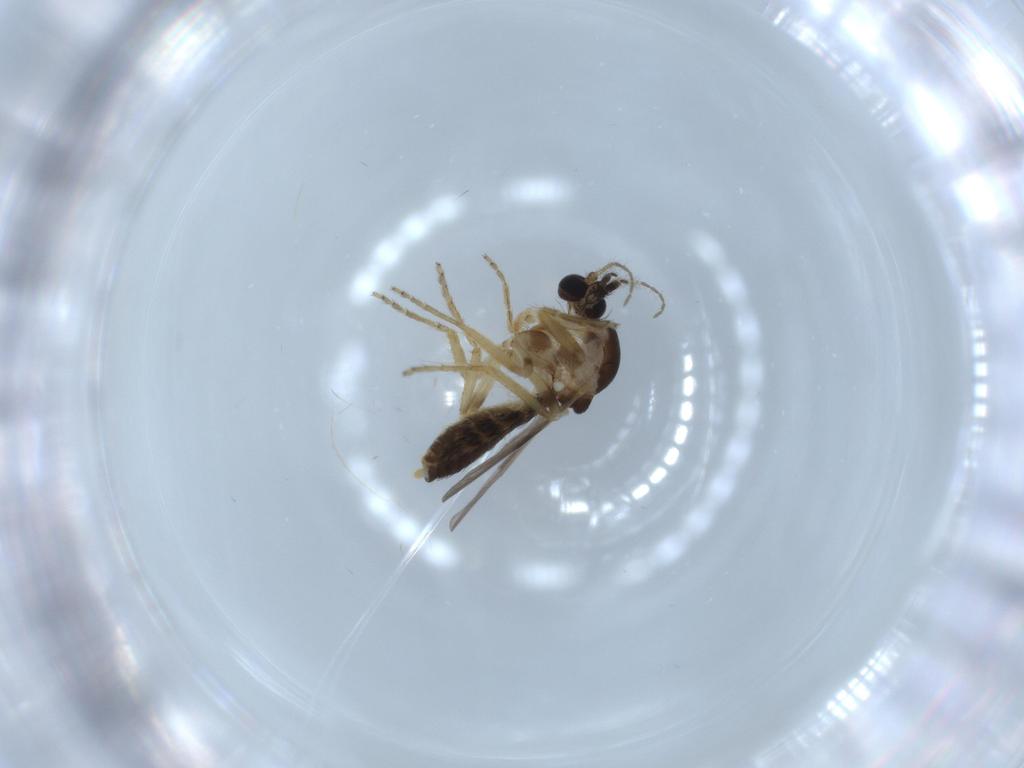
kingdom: Animalia
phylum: Arthropoda
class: Insecta
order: Diptera
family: Ceratopogonidae
